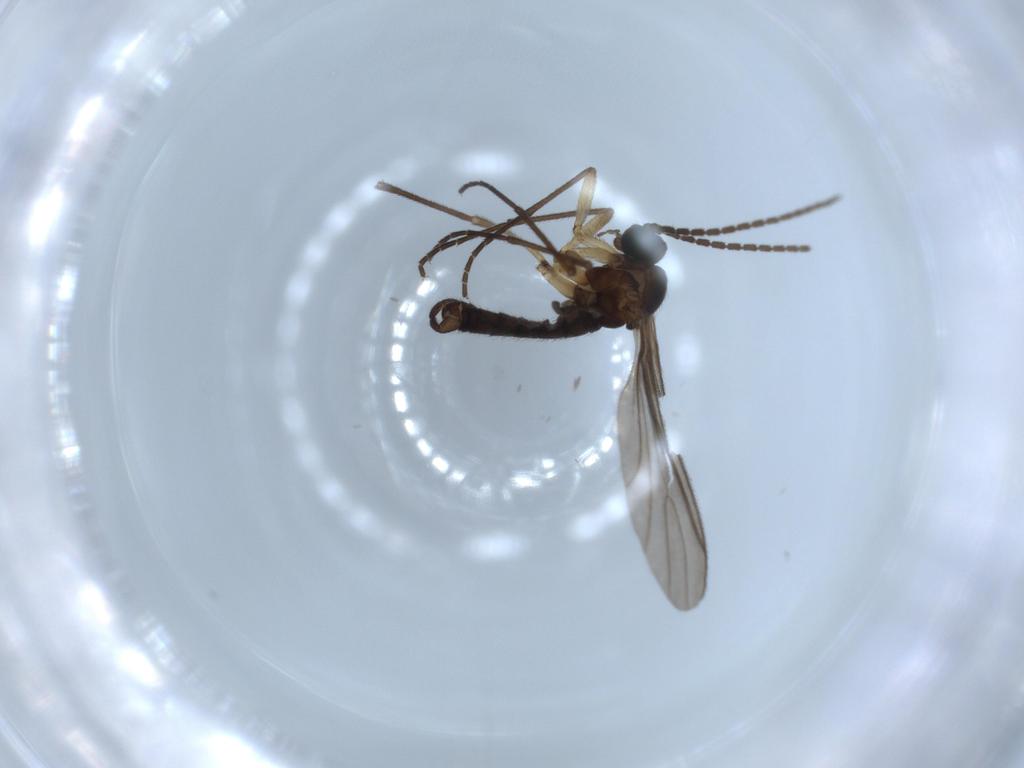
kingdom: Animalia
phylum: Arthropoda
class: Insecta
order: Diptera
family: Sciaridae
